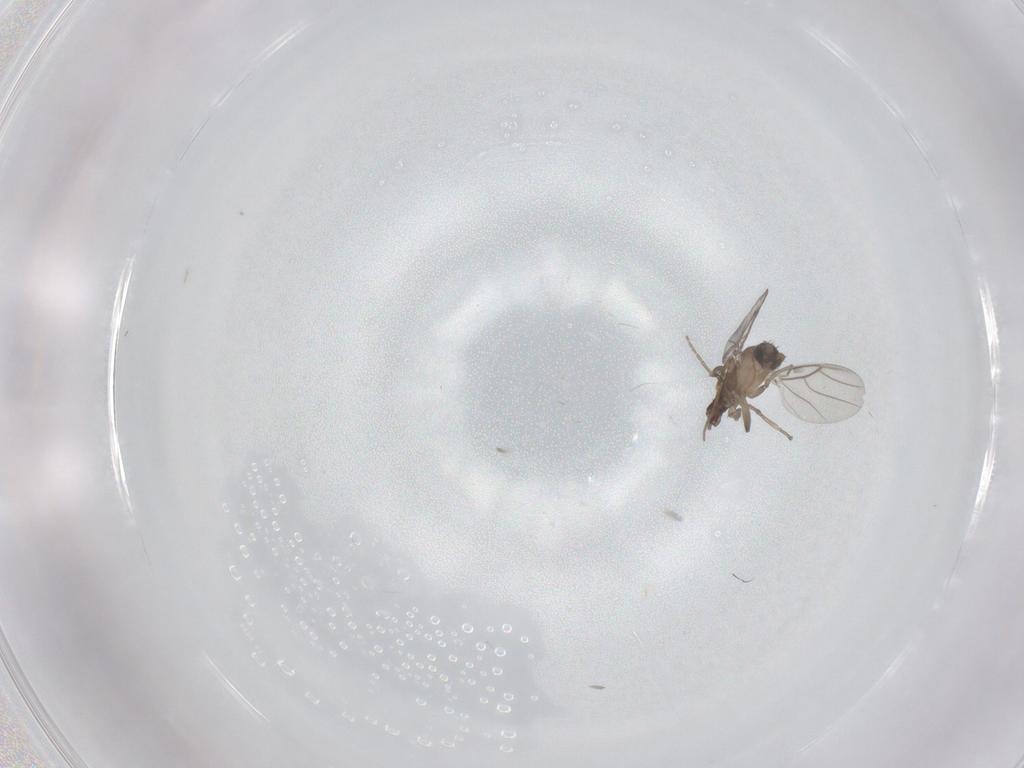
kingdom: Animalia
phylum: Arthropoda
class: Insecta
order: Diptera
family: Phoridae
